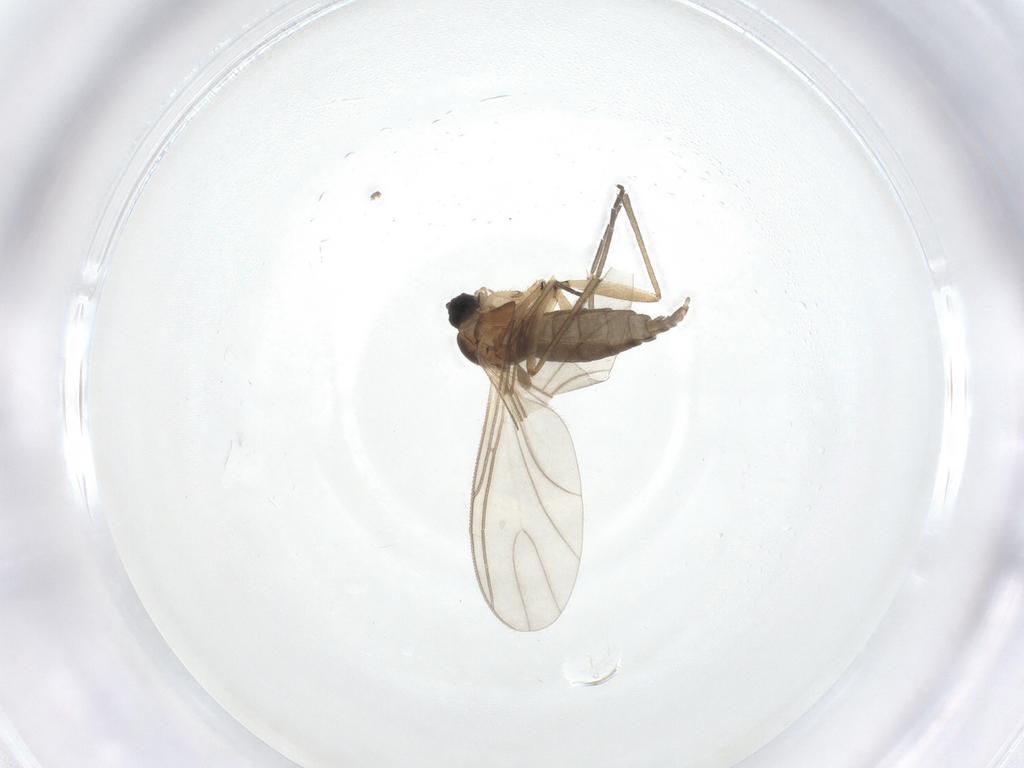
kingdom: Animalia
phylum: Arthropoda
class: Insecta
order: Diptera
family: Sciaridae
